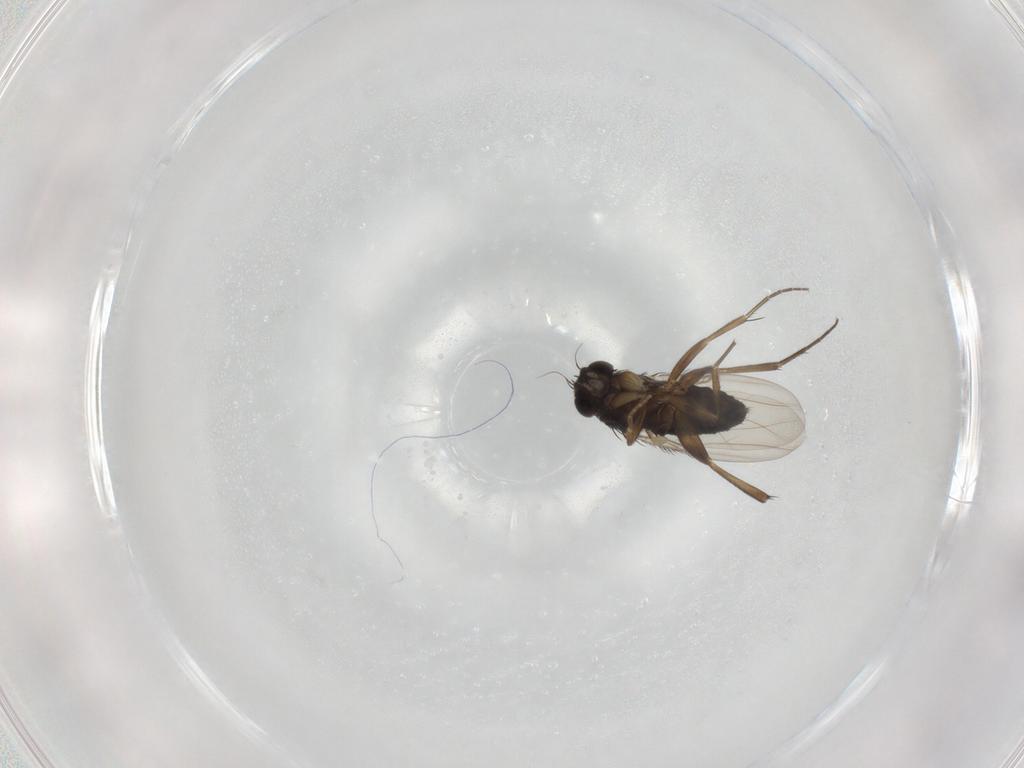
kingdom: Animalia
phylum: Arthropoda
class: Insecta
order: Diptera
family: Phoridae
